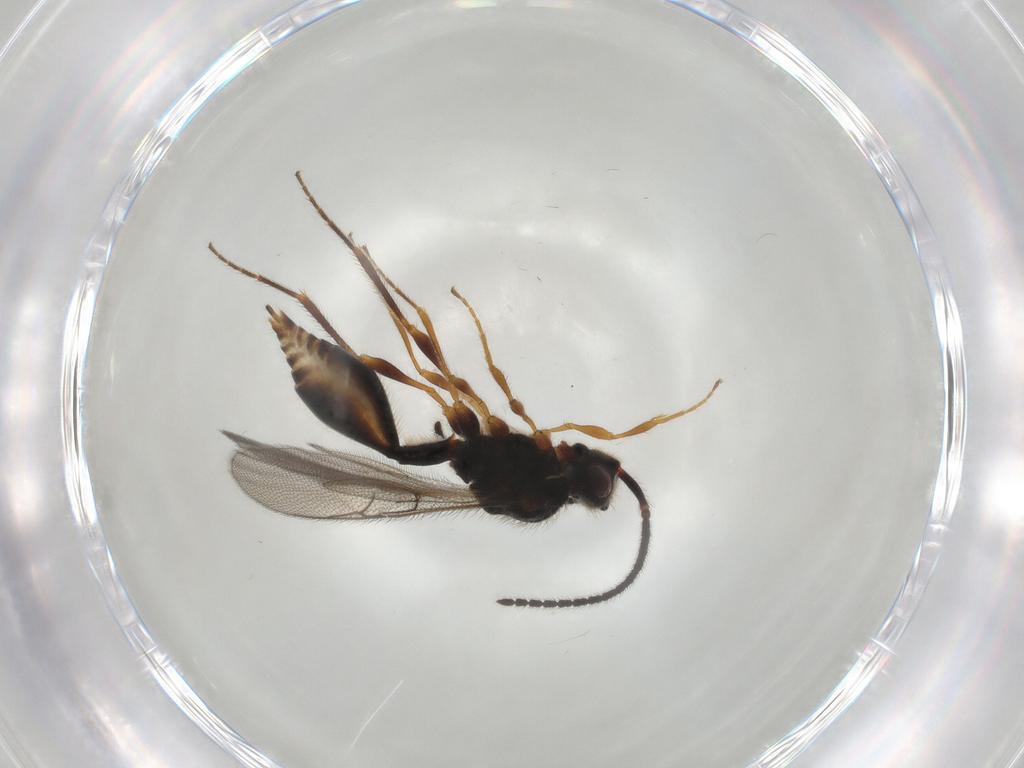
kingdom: Animalia
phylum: Arthropoda
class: Insecta
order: Hymenoptera
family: Diapriidae
